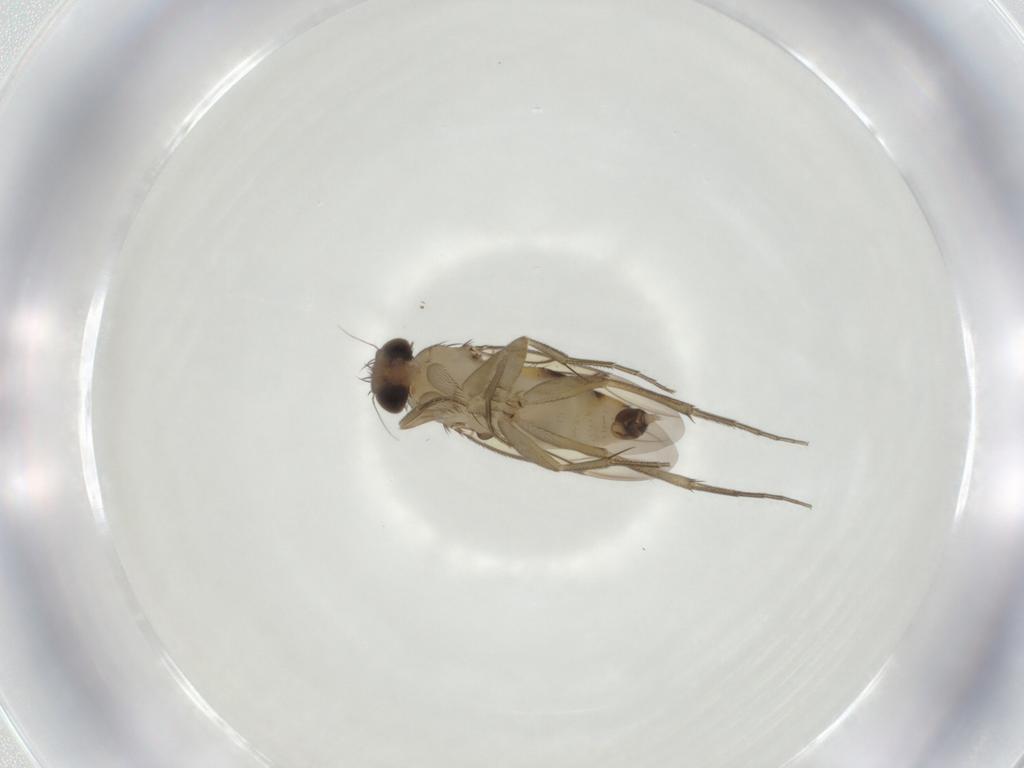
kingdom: Animalia
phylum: Arthropoda
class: Insecta
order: Diptera
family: Phoridae
